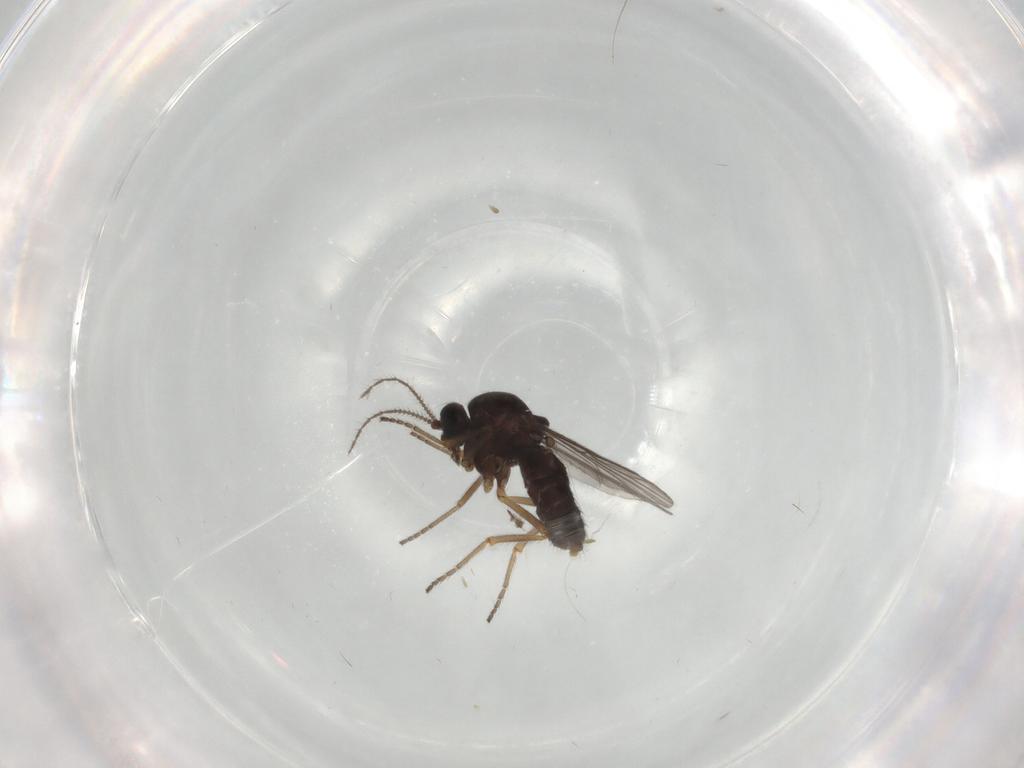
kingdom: Animalia
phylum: Arthropoda
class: Insecta
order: Diptera
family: Ceratopogonidae
